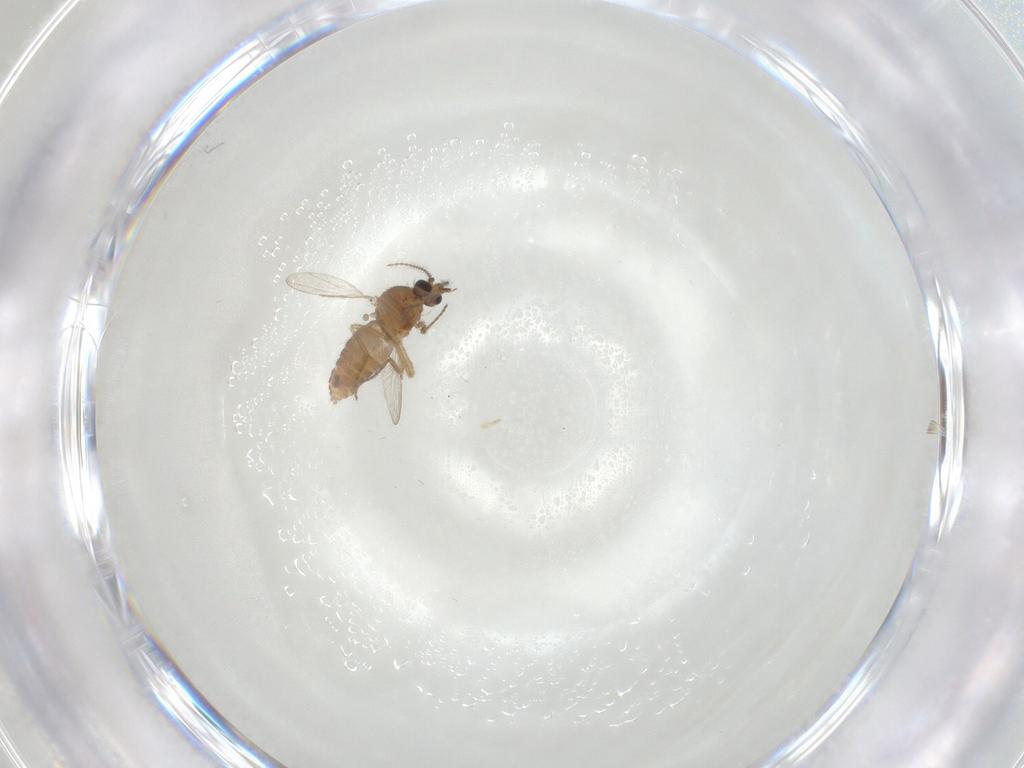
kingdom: Animalia
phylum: Arthropoda
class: Insecta
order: Diptera
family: Ceratopogonidae
